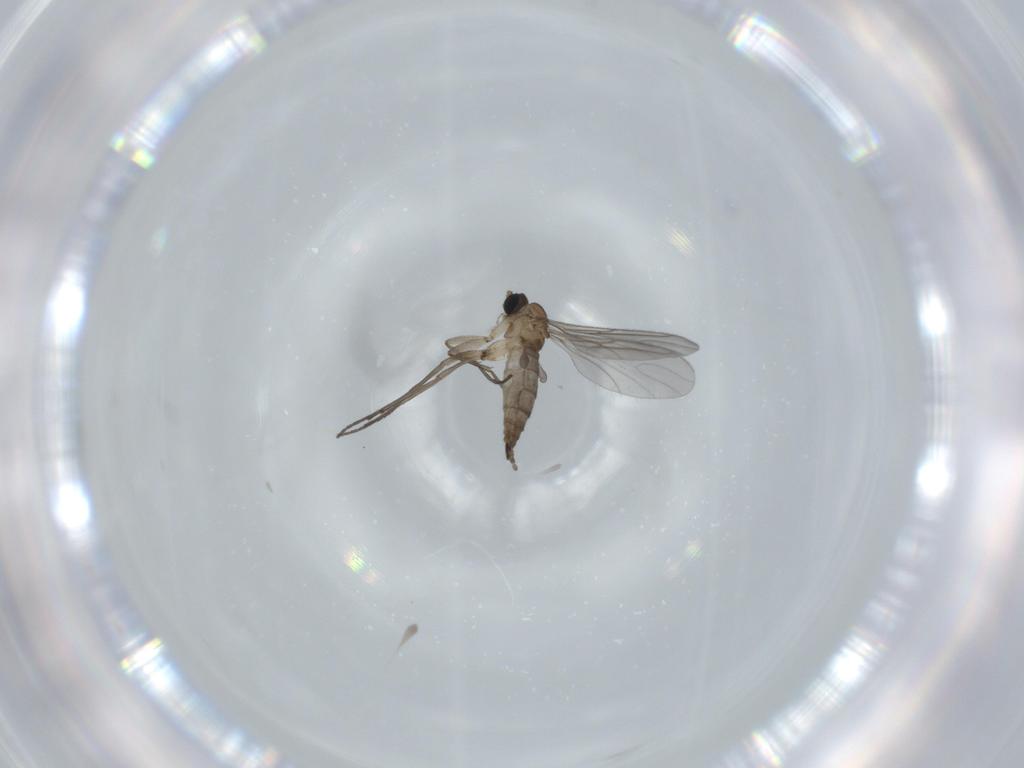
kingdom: Animalia
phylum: Arthropoda
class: Insecta
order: Diptera
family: Sciaridae
